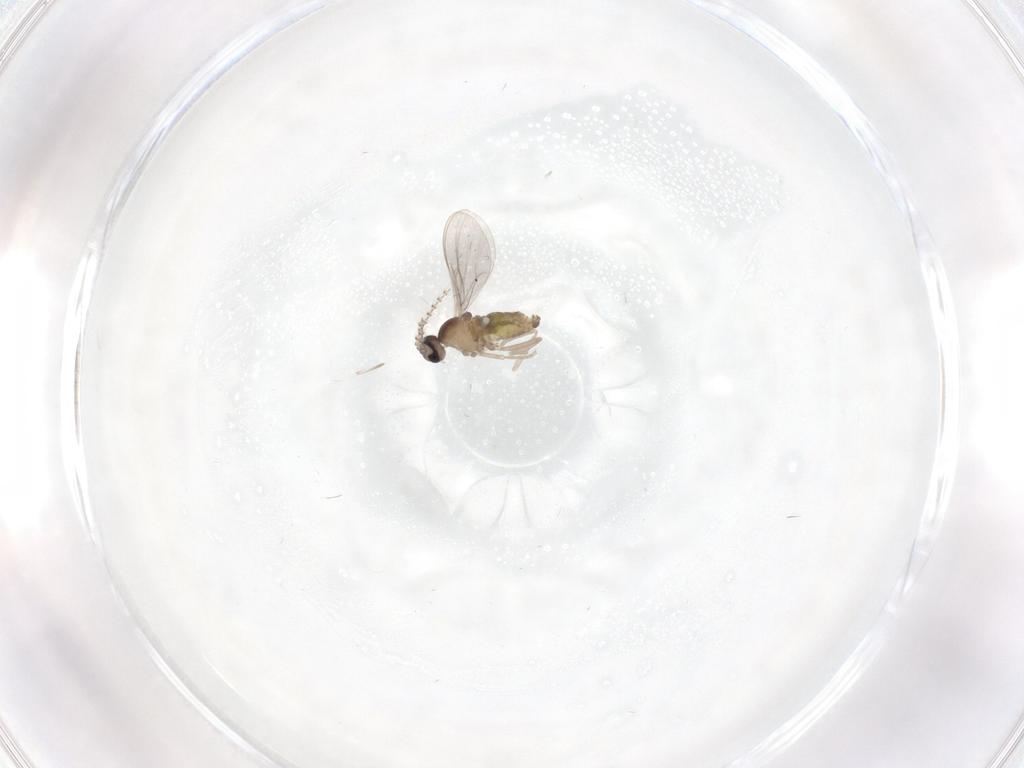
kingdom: Animalia
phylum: Arthropoda
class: Insecta
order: Diptera
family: Cecidomyiidae
